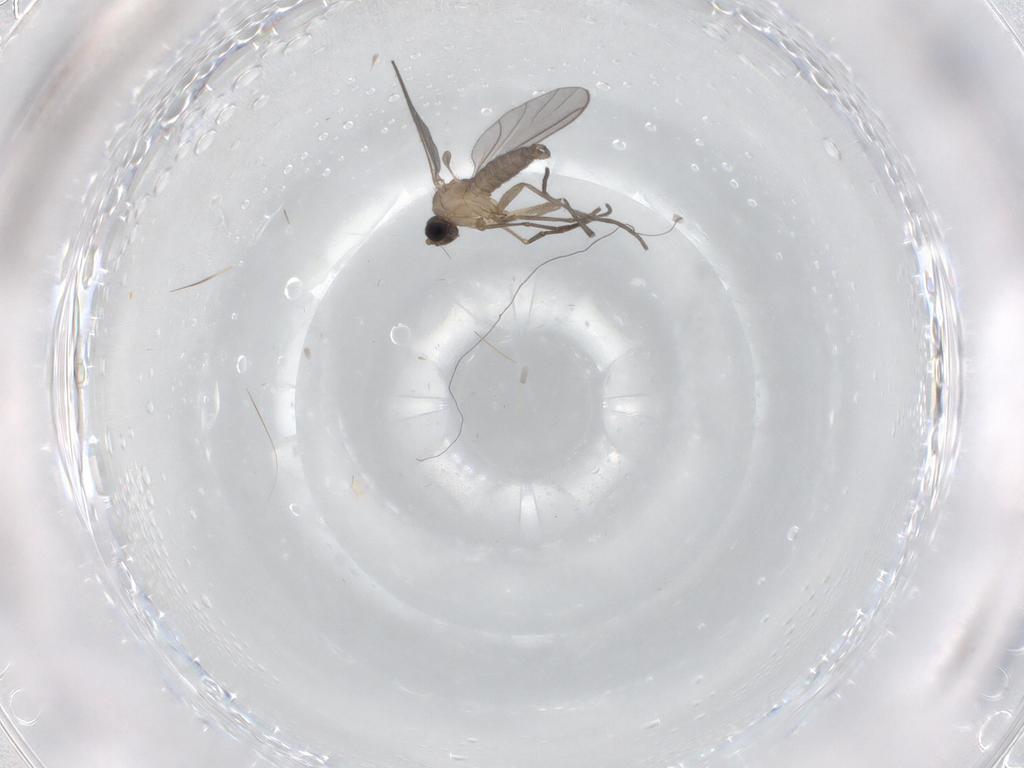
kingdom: Animalia
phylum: Arthropoda
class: Insecta
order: Diptera
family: Sciaridae
